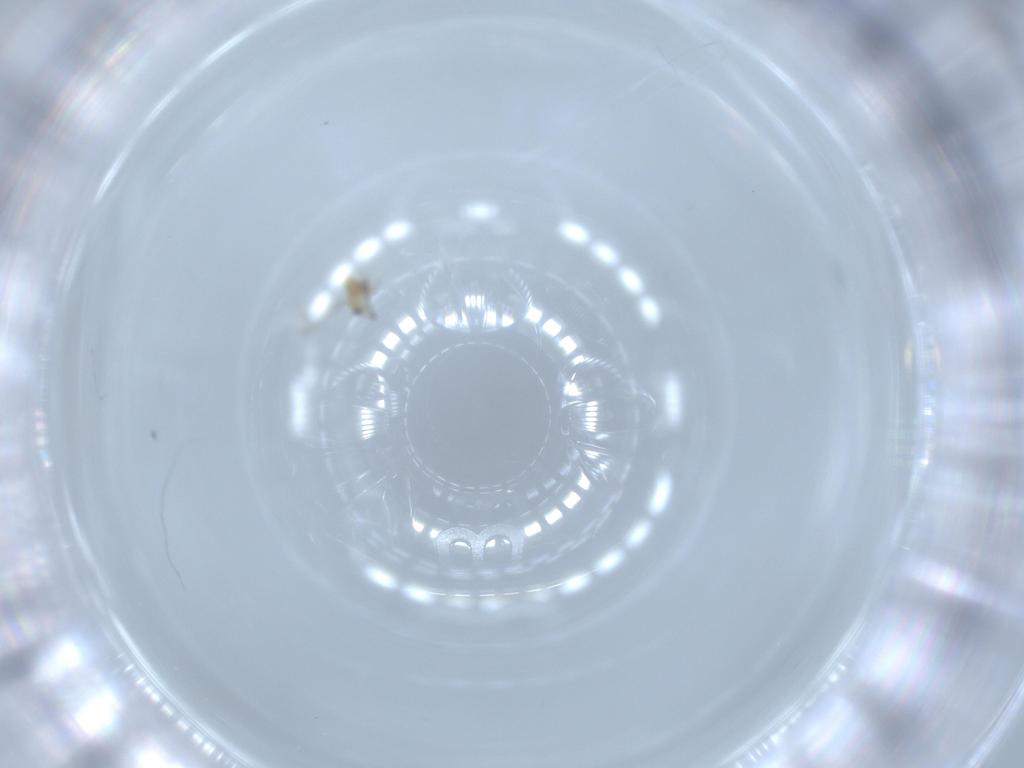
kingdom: Animalia
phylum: Arthropoda
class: Insecta
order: Hymenoptera
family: Mymaridae
